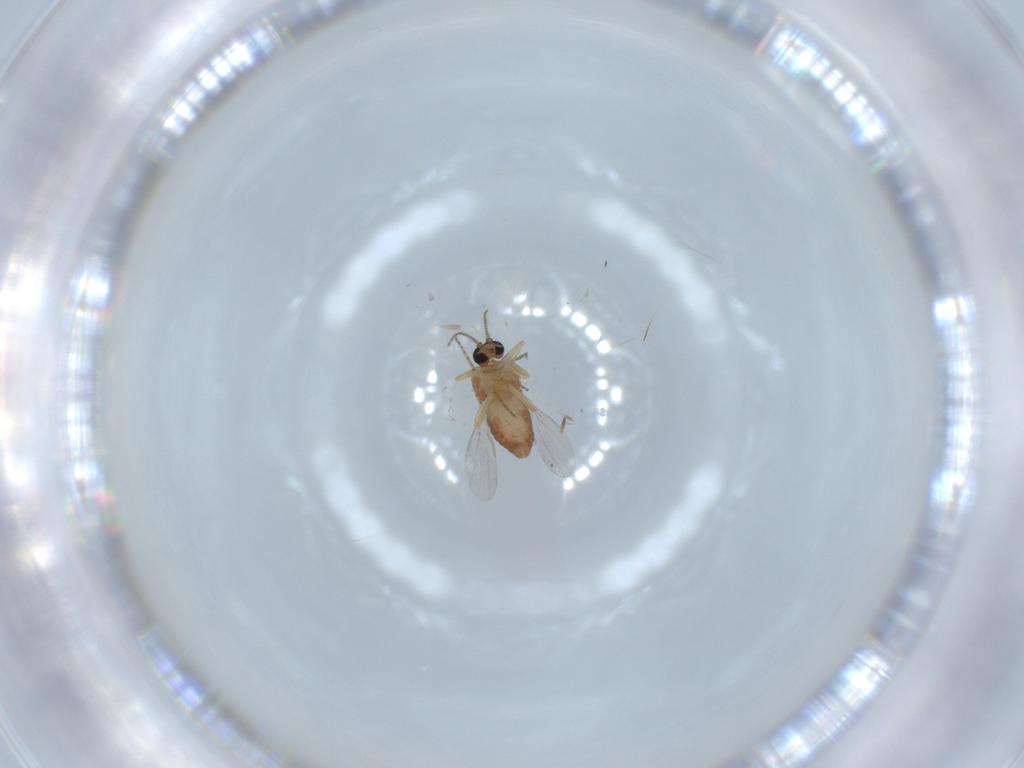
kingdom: Animalia
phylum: Arthropoda
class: Insecta
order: Diptera
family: Ceratopogonidae
